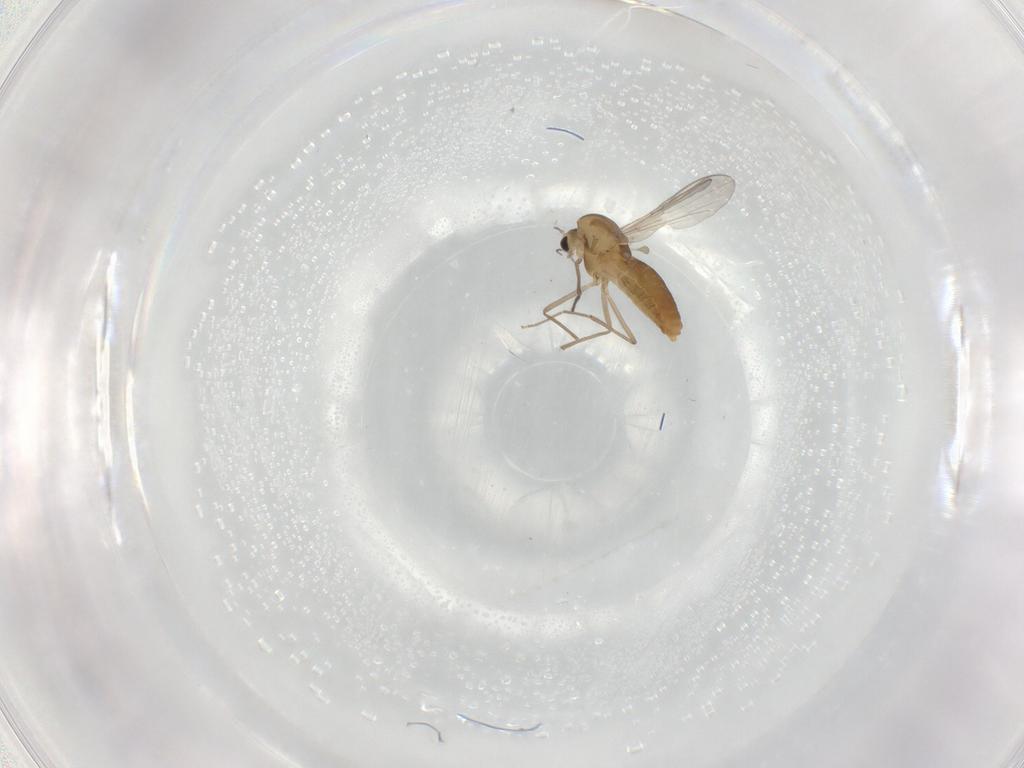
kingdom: Animalia
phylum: Arthropoda
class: Insecta
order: Diptera
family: Chironomidae
